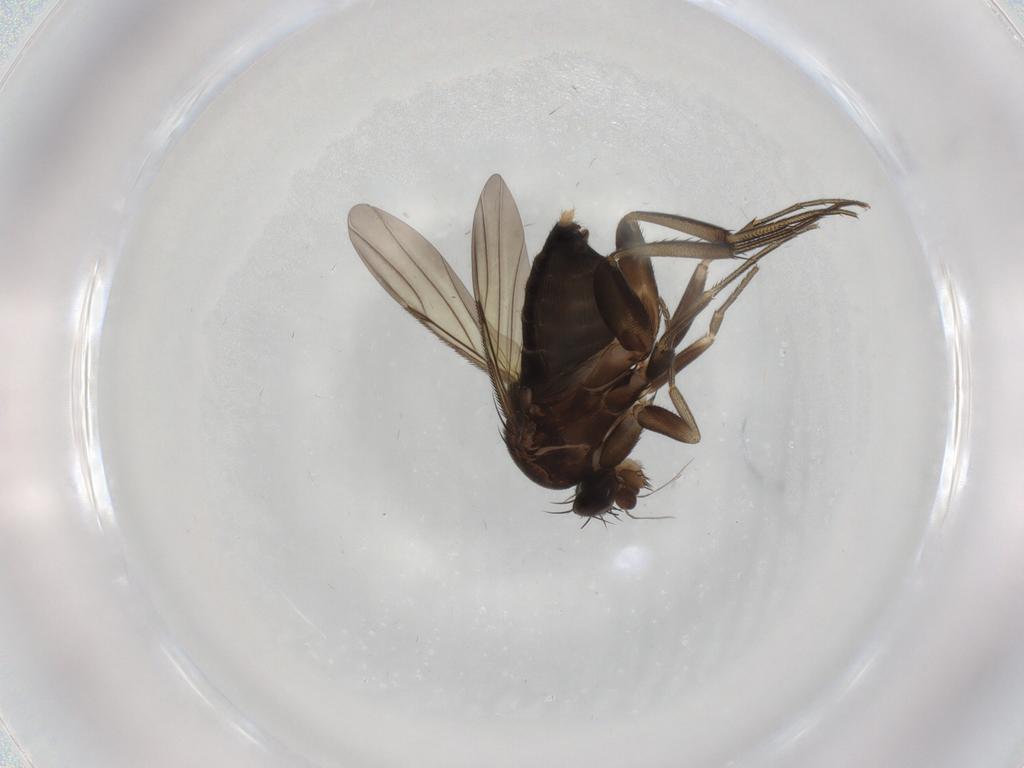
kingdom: Animalia
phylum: Arthropoda
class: Insecta
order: Diptera
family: Phoridae
